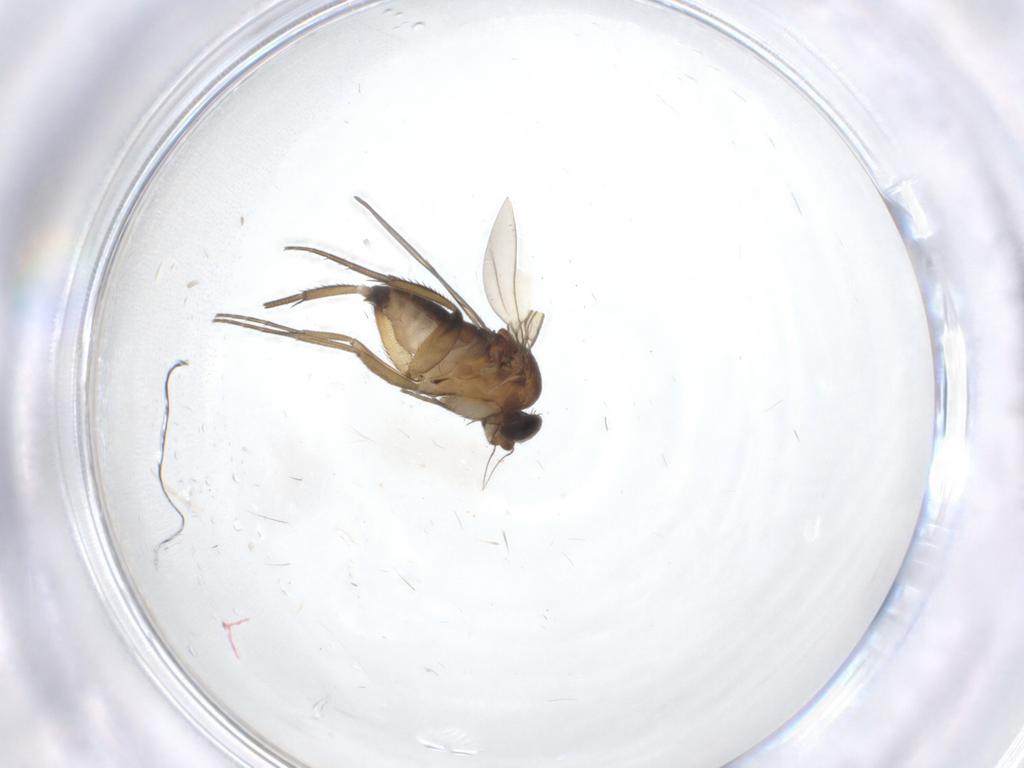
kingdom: Animalia
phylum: Arthropoda
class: Insecta
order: Diptera
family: Phoridae
